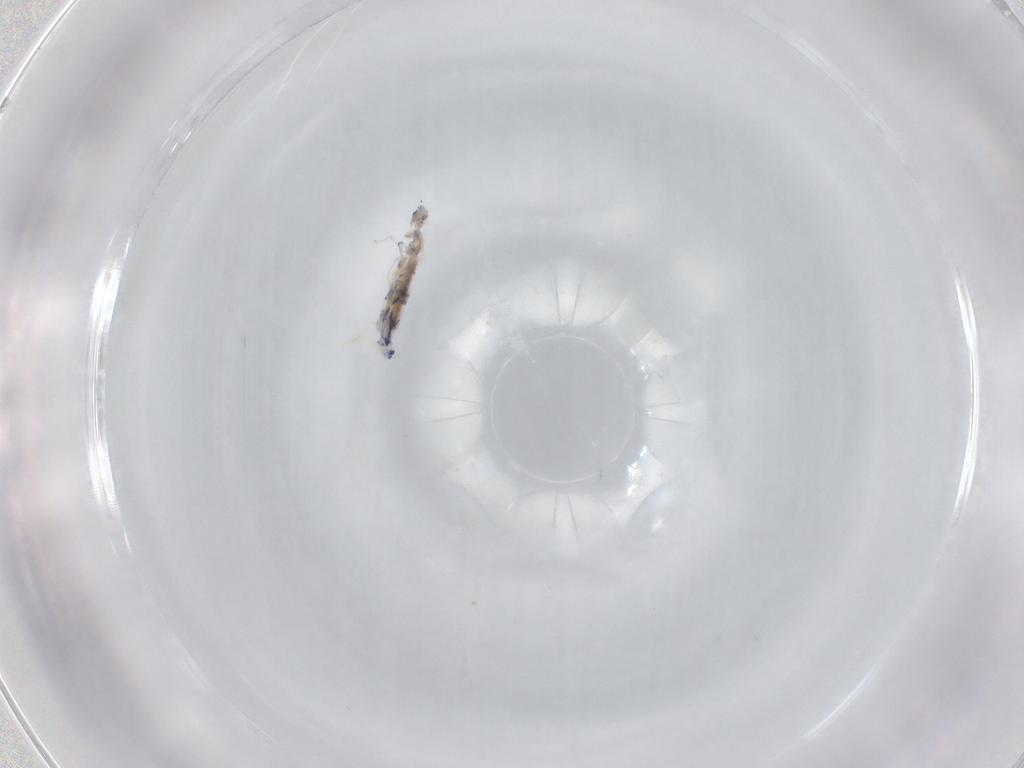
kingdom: Animalia
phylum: Arthropoda
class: Collembola
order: Entomobryomorpha
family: Entomobryidae
